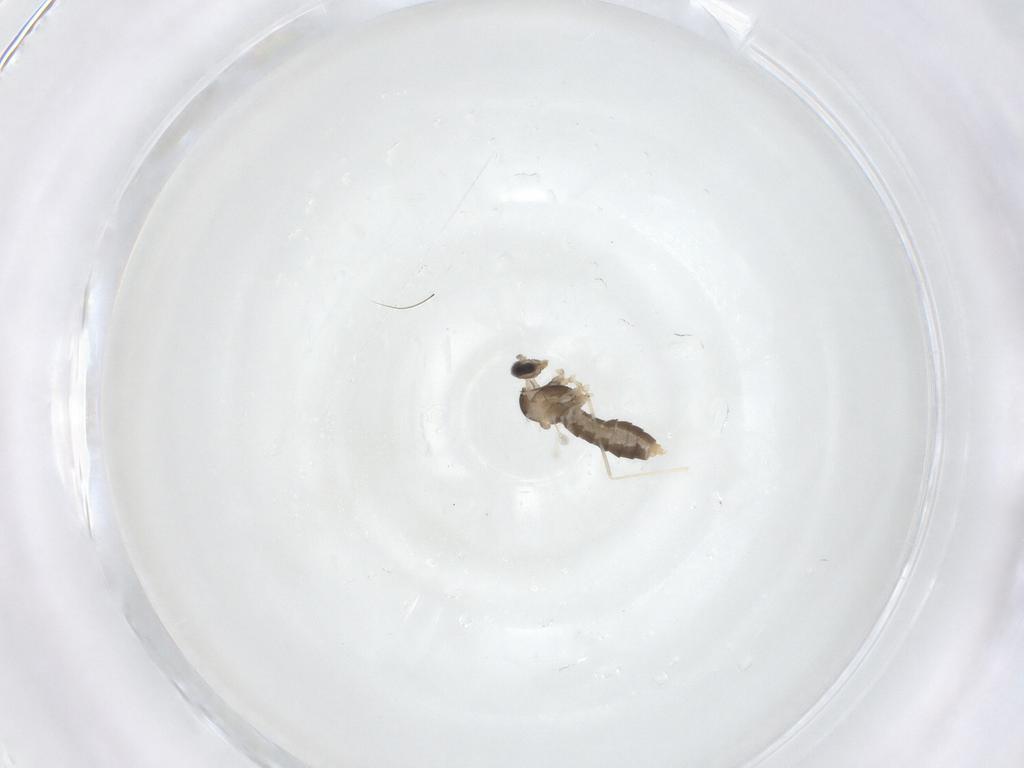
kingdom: Animalia
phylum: Arthropoda
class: Insecta
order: Diptera
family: Cecidomyiidae
